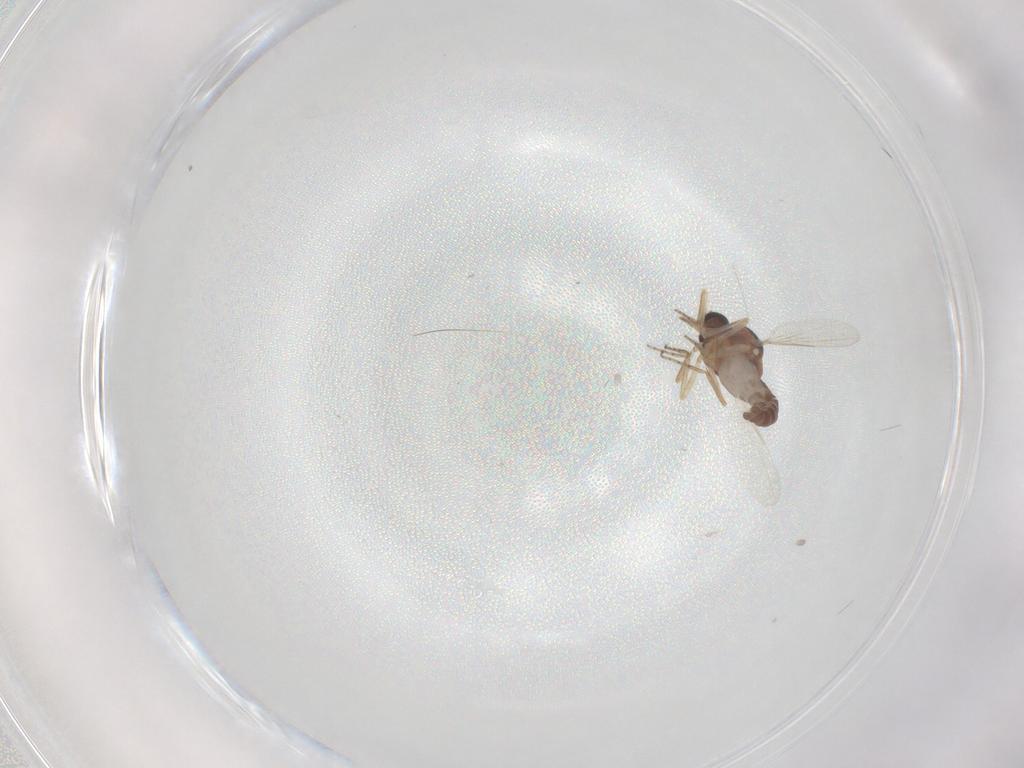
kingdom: Animalia
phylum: Arthropoda
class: Insecta
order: Diptera
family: Ceratopogonidae
